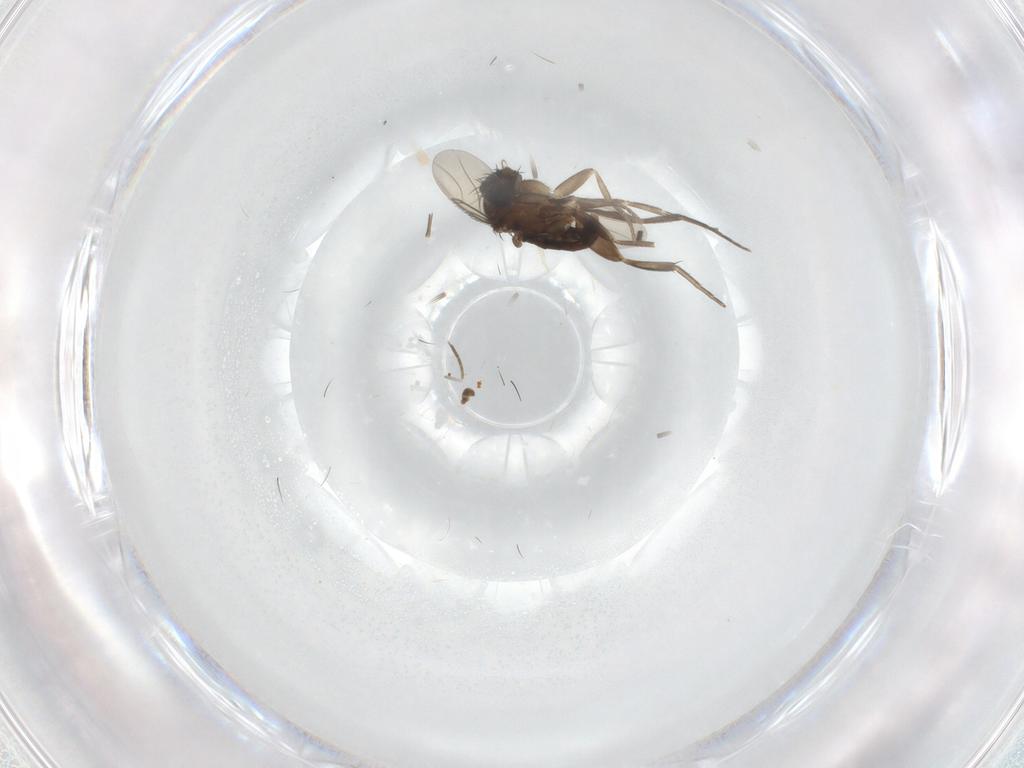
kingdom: Animalia
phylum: Arthropoda
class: Insecta
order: Diptera
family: Phoridae
